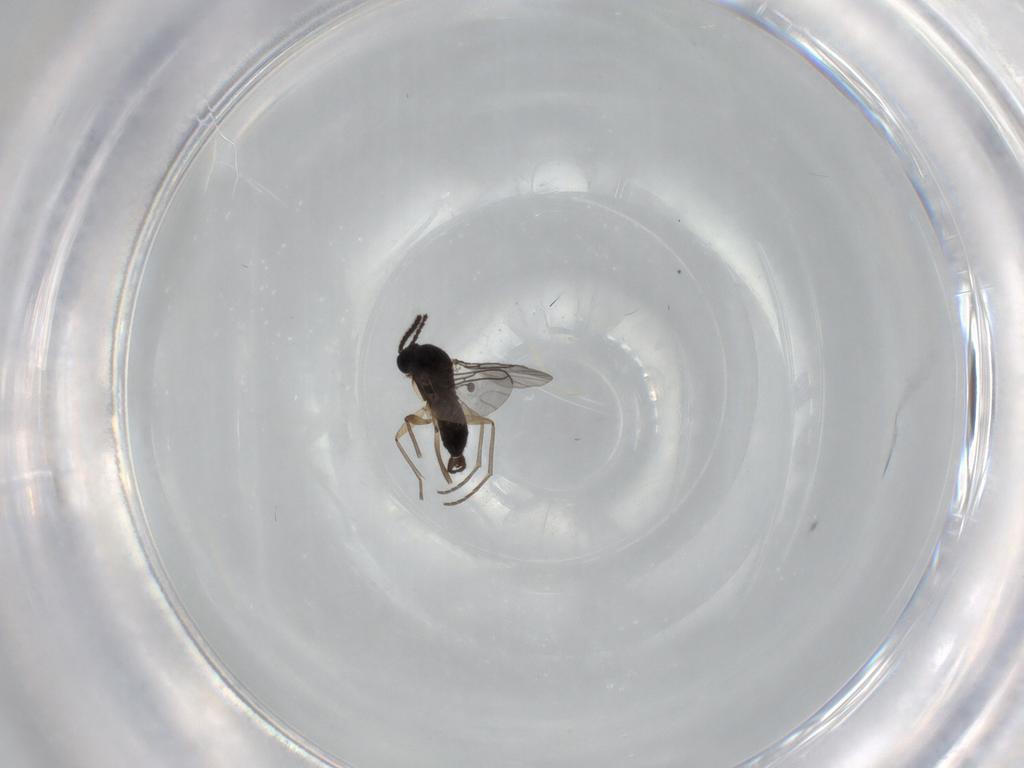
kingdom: Animalia
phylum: Arthropoda
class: Insecta
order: Diptera
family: Sciaridae
